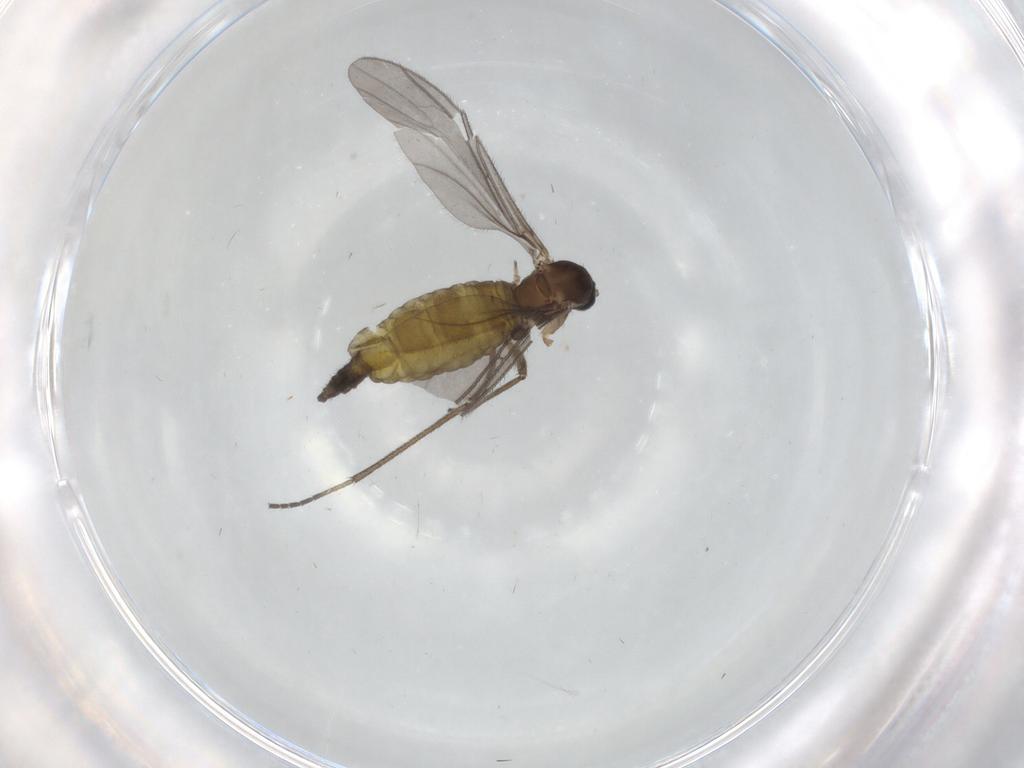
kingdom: Animalia
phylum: Arthropoda
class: Insecta
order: Diptera
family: Sciaridae
